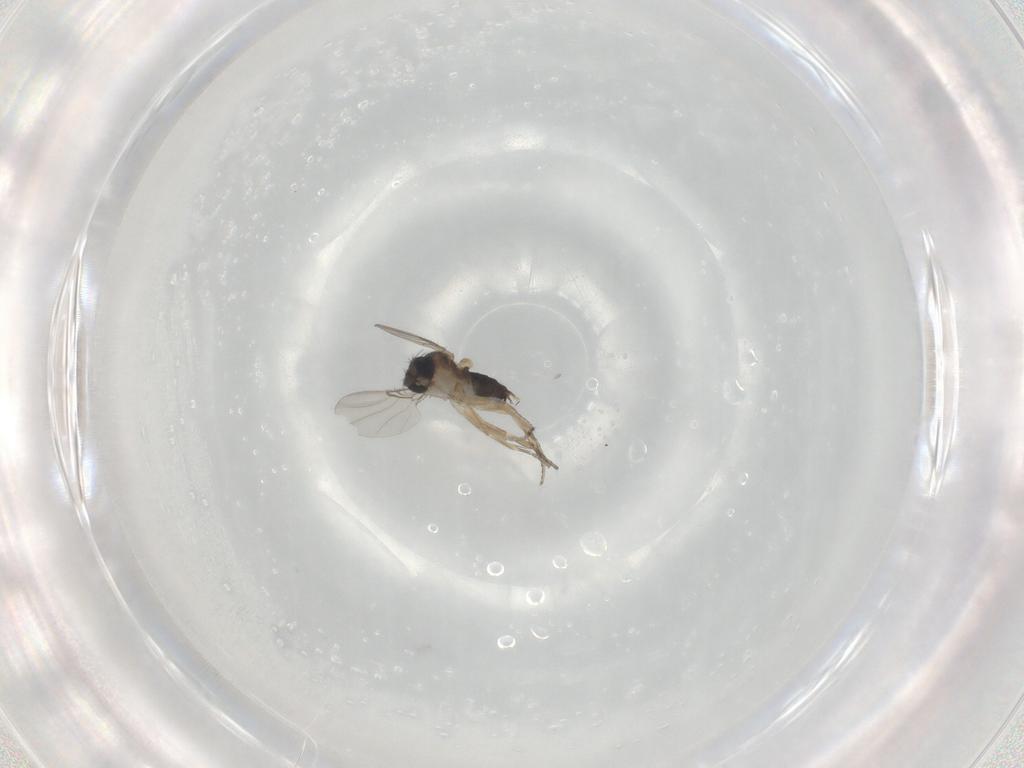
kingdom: Animalia
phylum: Arthropoda
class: Insecta
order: Diptera
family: Phoridae
